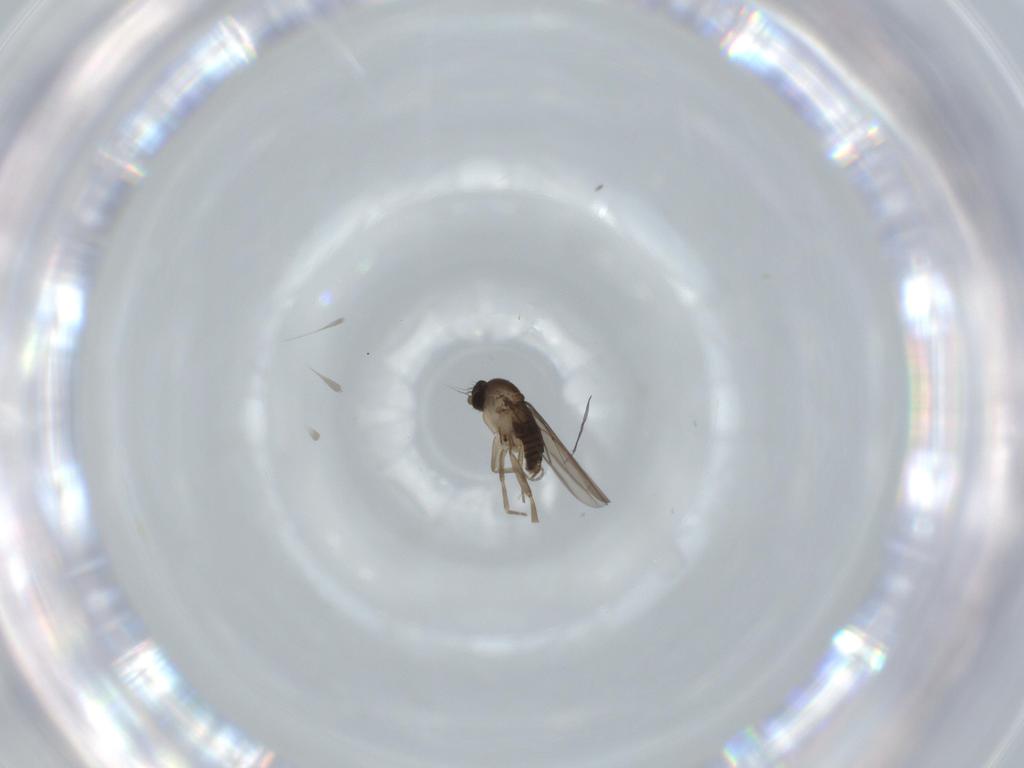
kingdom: Animalia
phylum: Arthropoda
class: Insecta
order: Diptera
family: Phoridae
